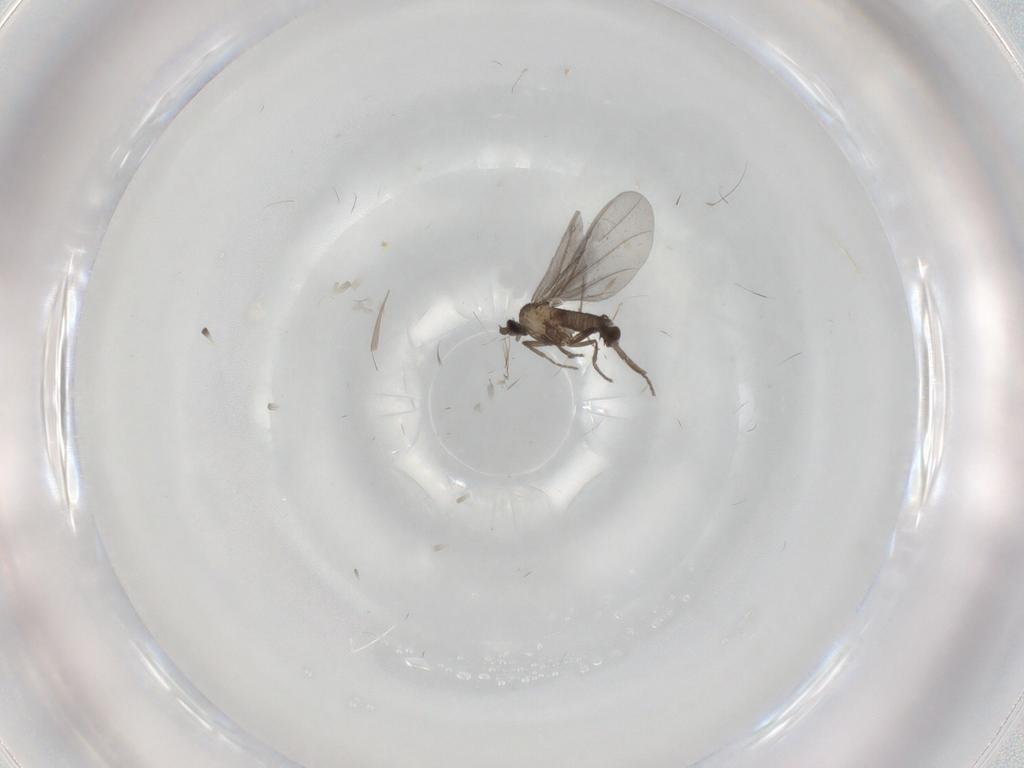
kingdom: Animalia
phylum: Arthropoda
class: Insecta
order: Diptera
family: Phoridae
